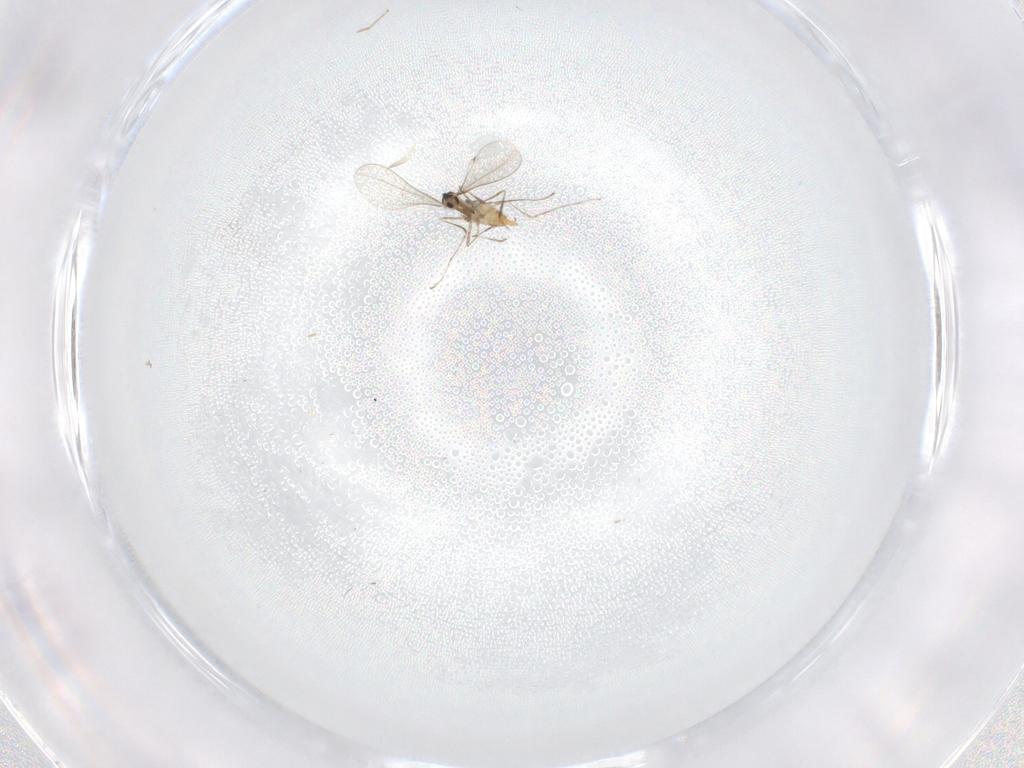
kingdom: Animalia
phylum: Arthropoda
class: Insecta
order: Diptera
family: Cecidomyiidae
